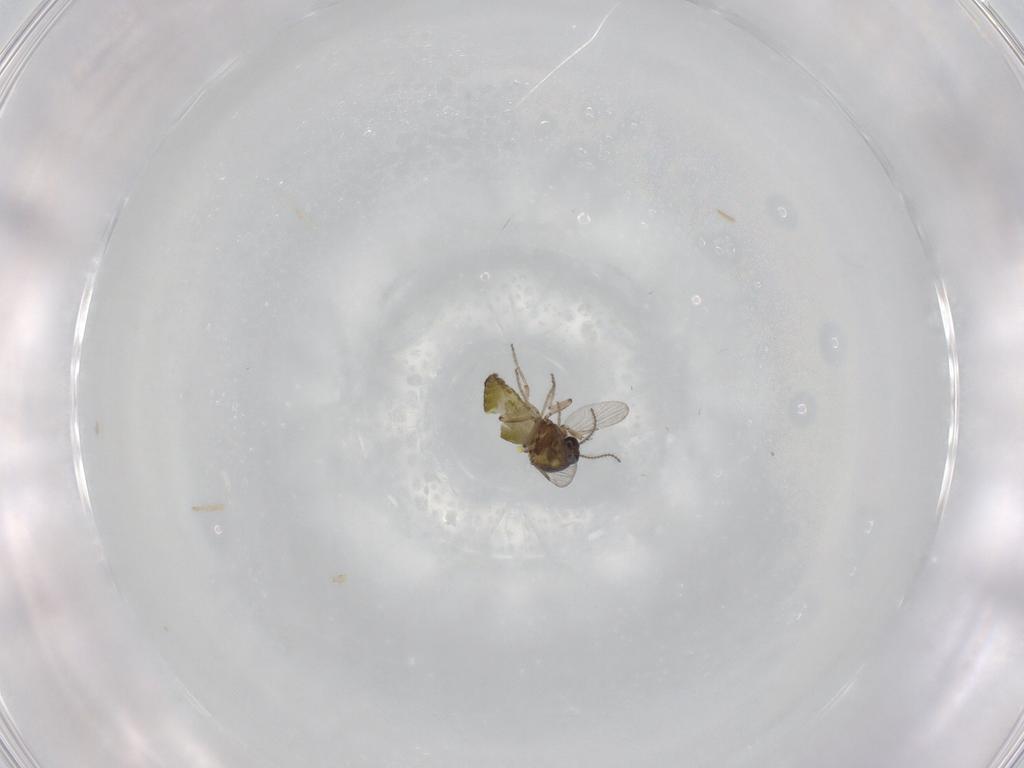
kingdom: Animalia
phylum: Arthropoda
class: Insecta
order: Diptera
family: Ceratopogonidae
